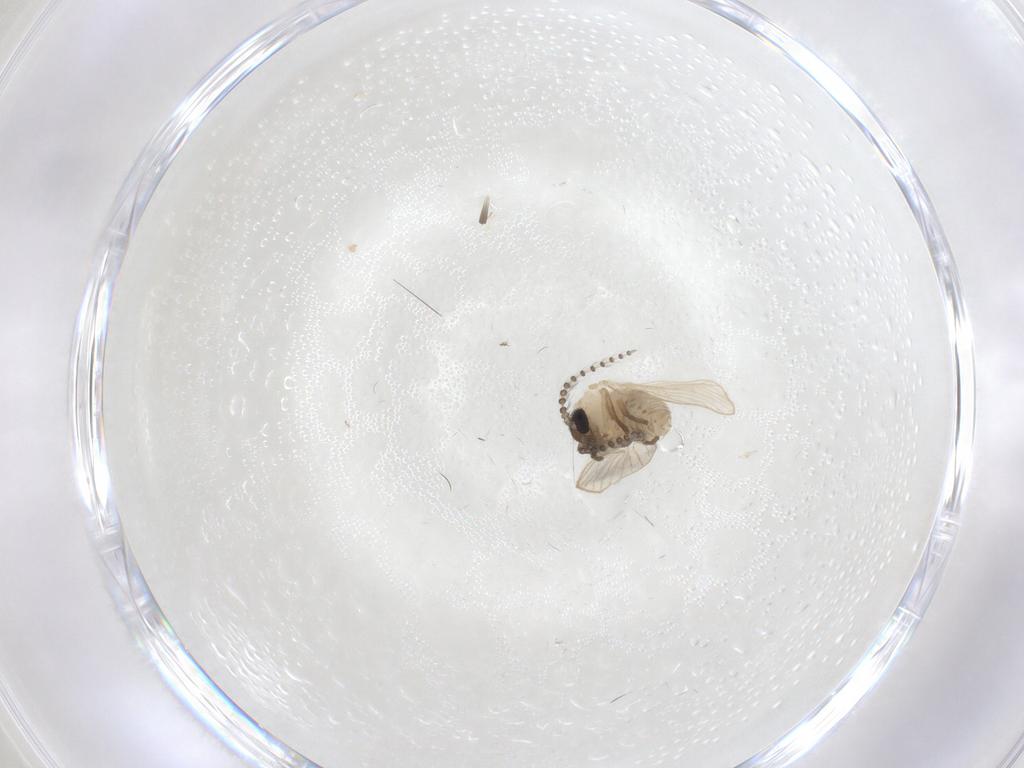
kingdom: Animalia
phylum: Arthropoda
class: Insecta
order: Diptera
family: Psychodidae
